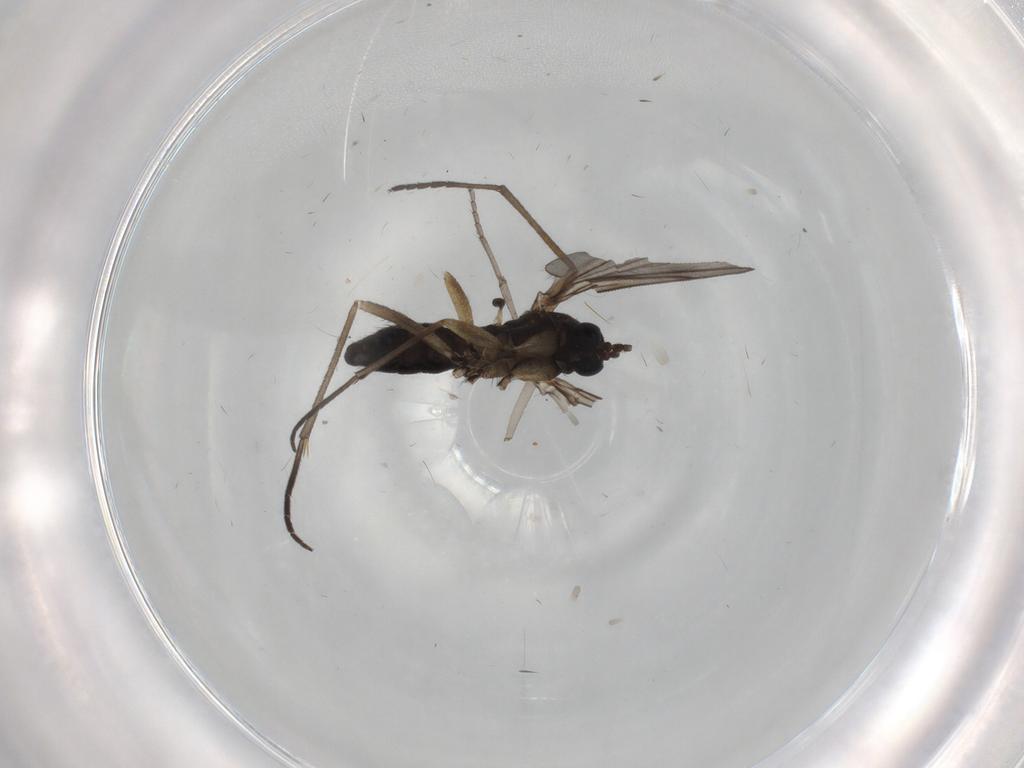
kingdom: Animalia
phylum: Arthropoda
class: Insecta
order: Diptera
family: Sciaridae
